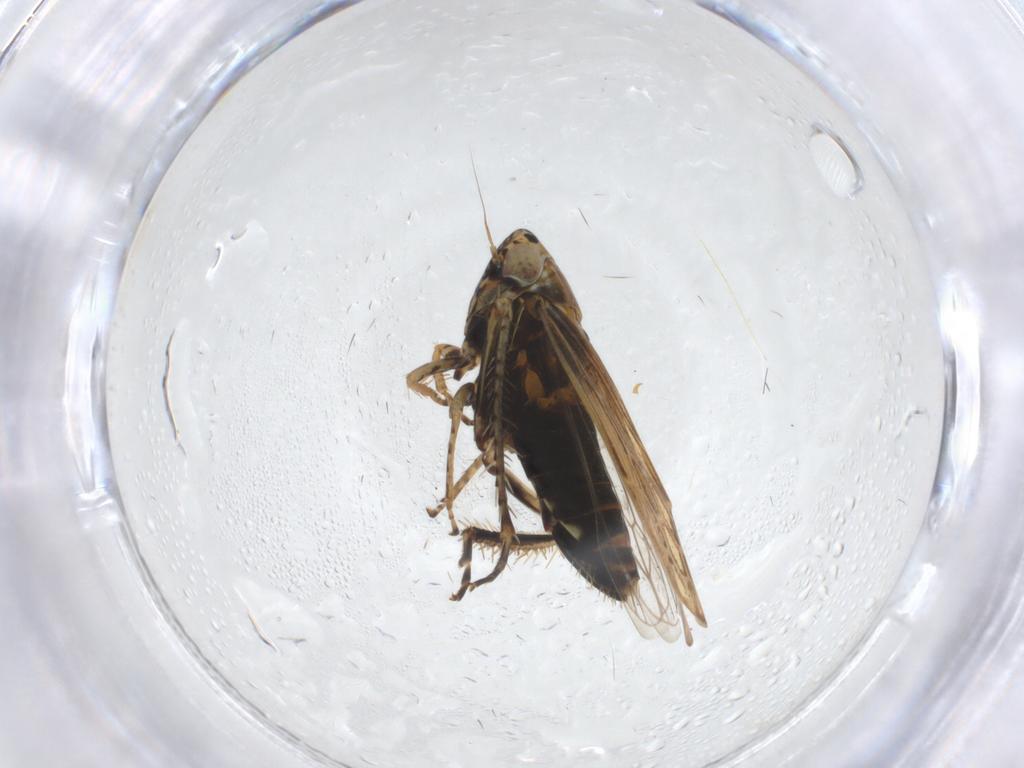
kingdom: Animalia
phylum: Arthropoda
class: Insecta
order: Hemiptera
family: Cicadellidae
